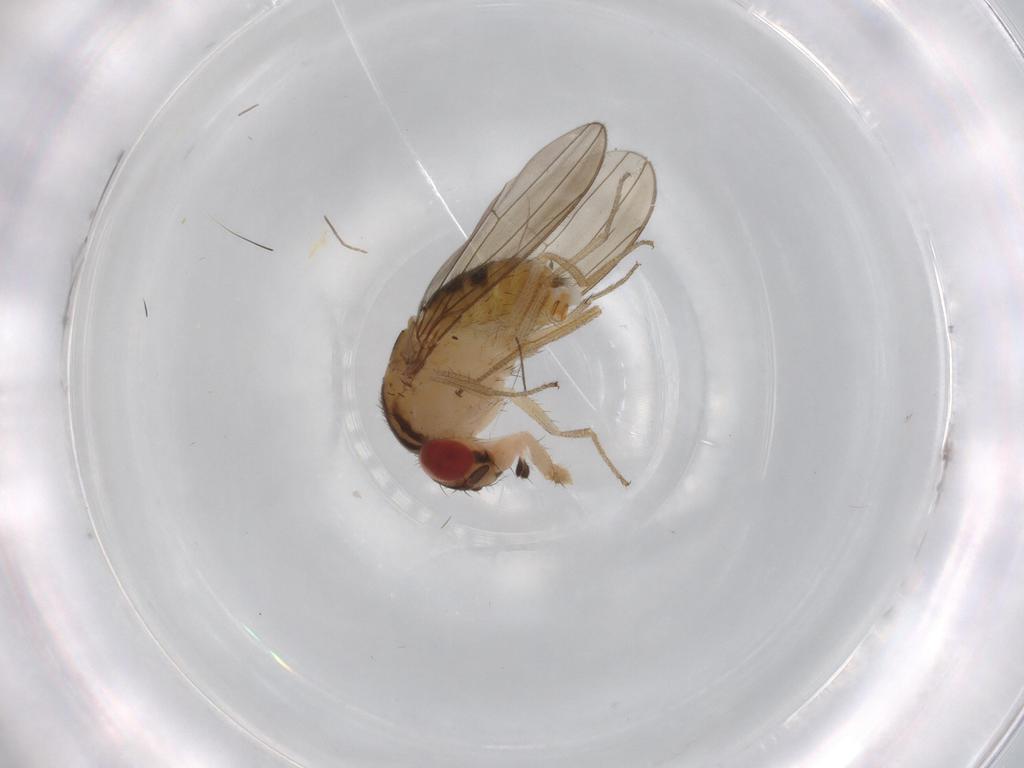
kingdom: Animalia
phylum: Arthropoda
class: Insecta
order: Diptera
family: Drosophilidae
